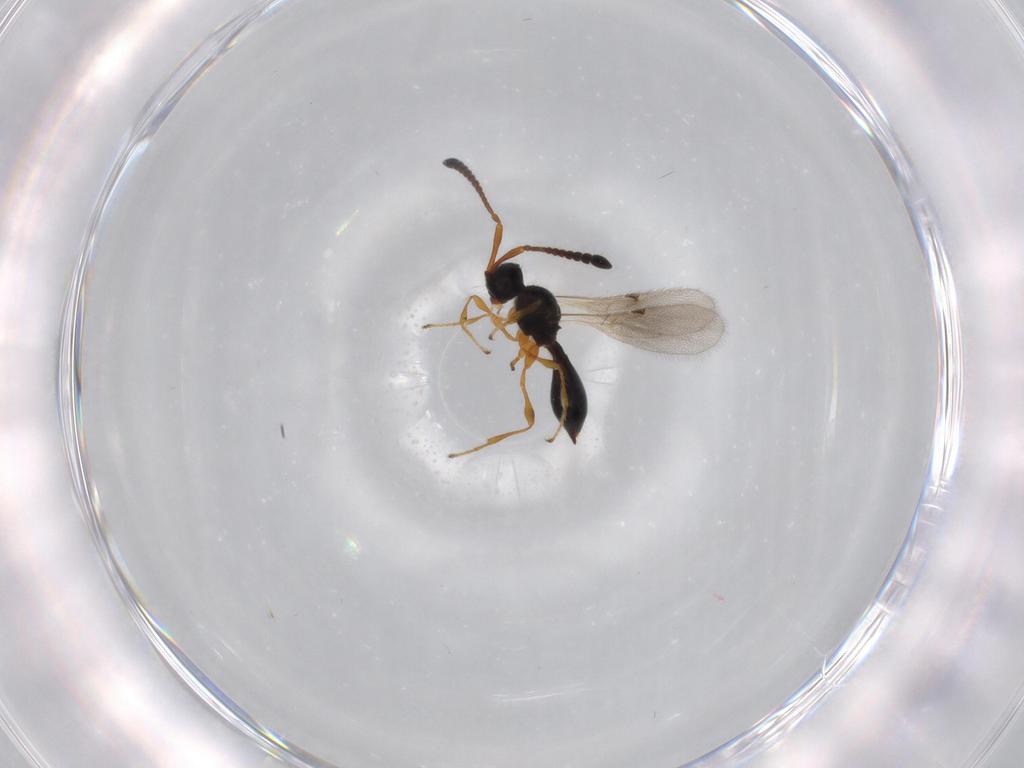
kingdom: Animalia
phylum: Arthropoda
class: Insecta
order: Hymenoptera
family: Diapriidae
